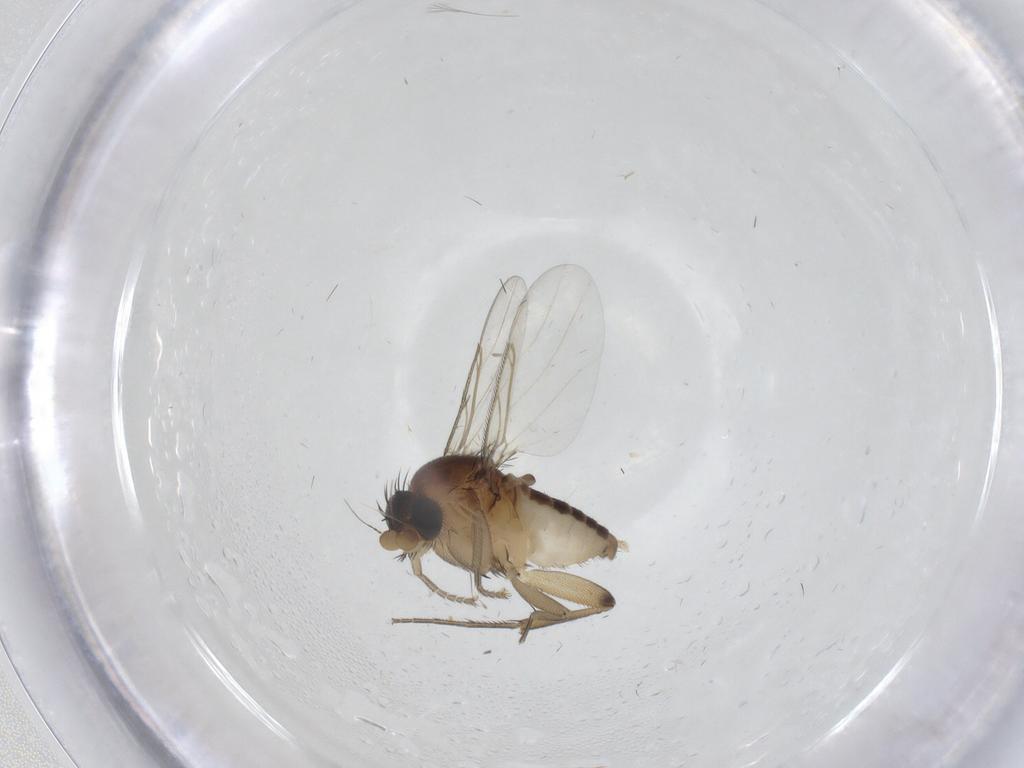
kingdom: Animalia
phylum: Arthropoda
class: Insecta
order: Diptera
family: Phoridae
